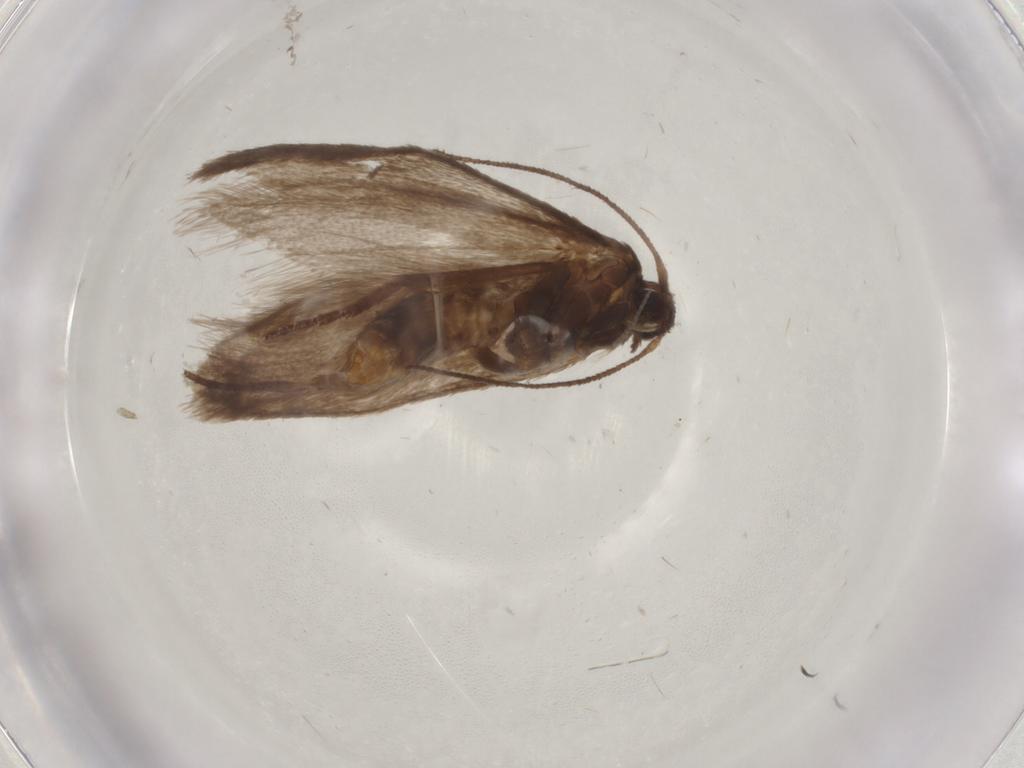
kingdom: Animalia
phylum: Arthropoda
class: Insecta
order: Diptera
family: Cecidomyiidae
